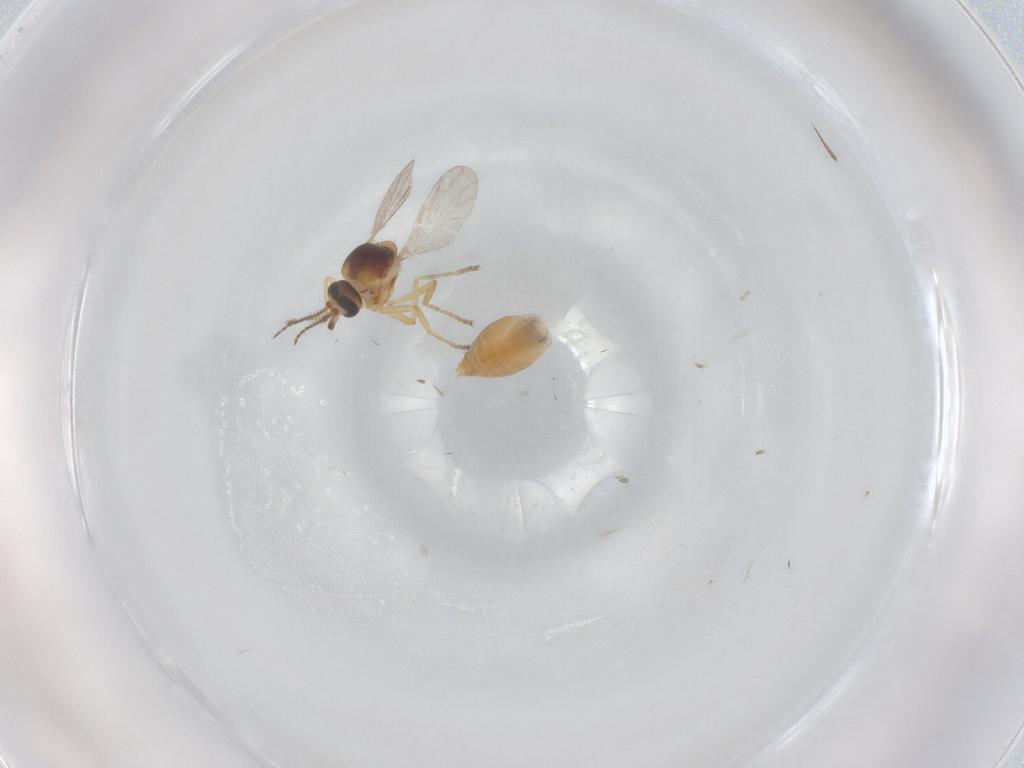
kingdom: Animalia
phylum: Arthropoda
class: Insecta
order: Diptera
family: Ceratopogonidae
